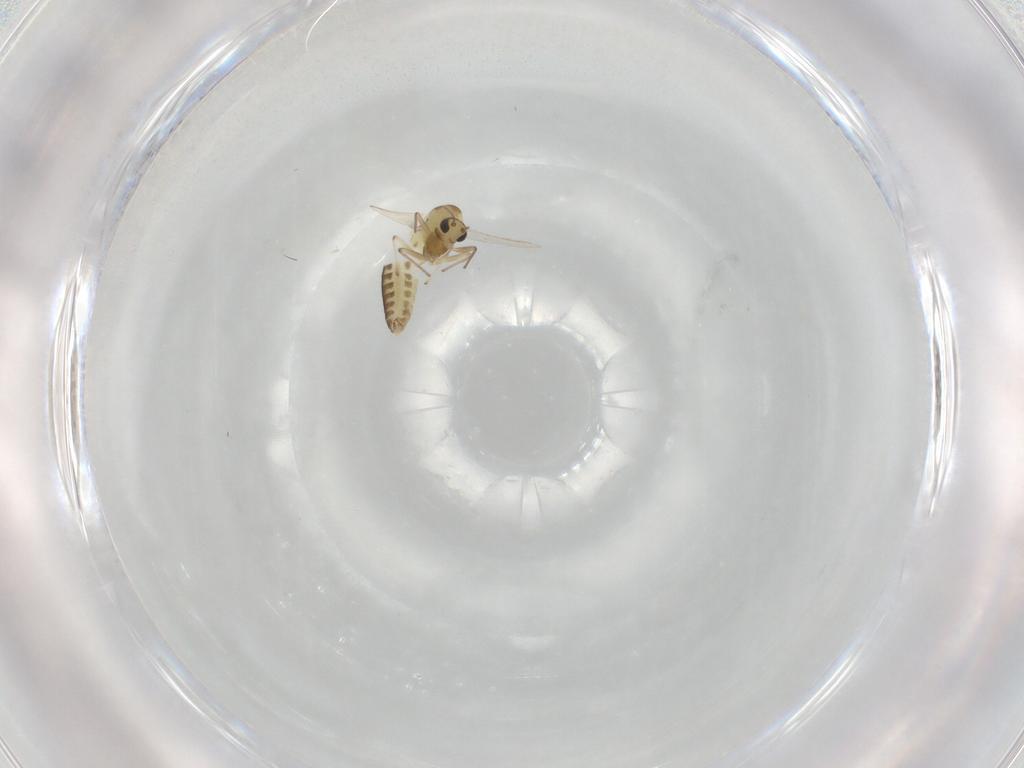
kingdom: Animalia
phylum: Arthropoda
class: Insecta
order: Diptera
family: Chironomidae
